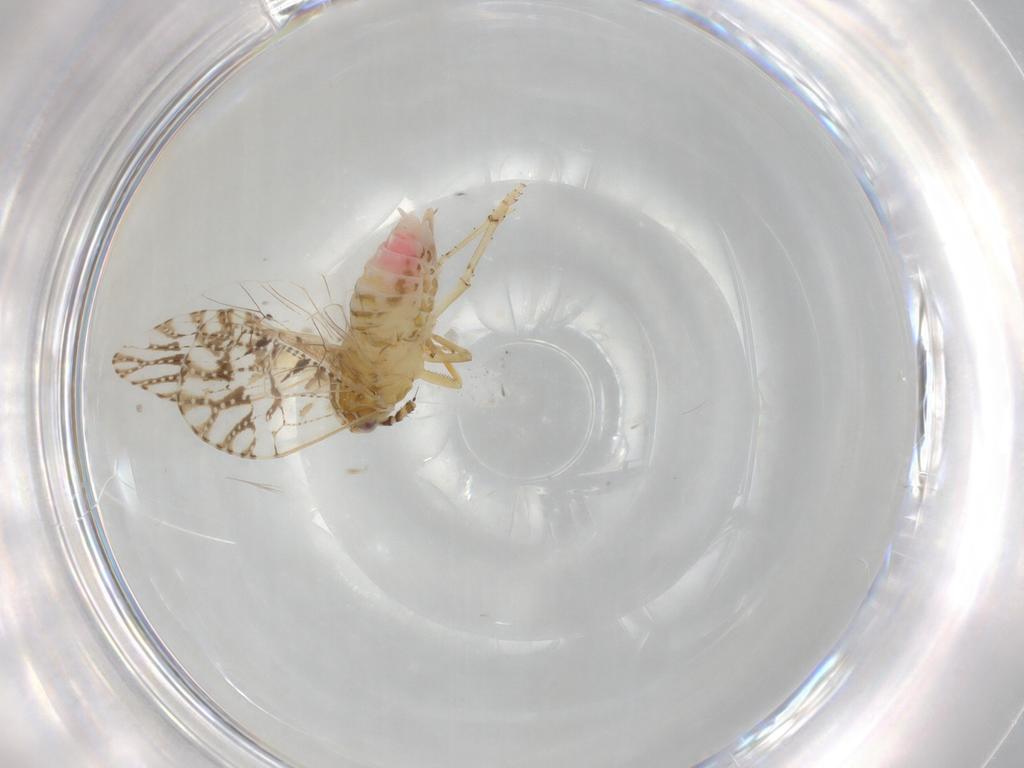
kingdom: Animalia
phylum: Arthropoda
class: Insecta
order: Hemiptera
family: Delphacidae
